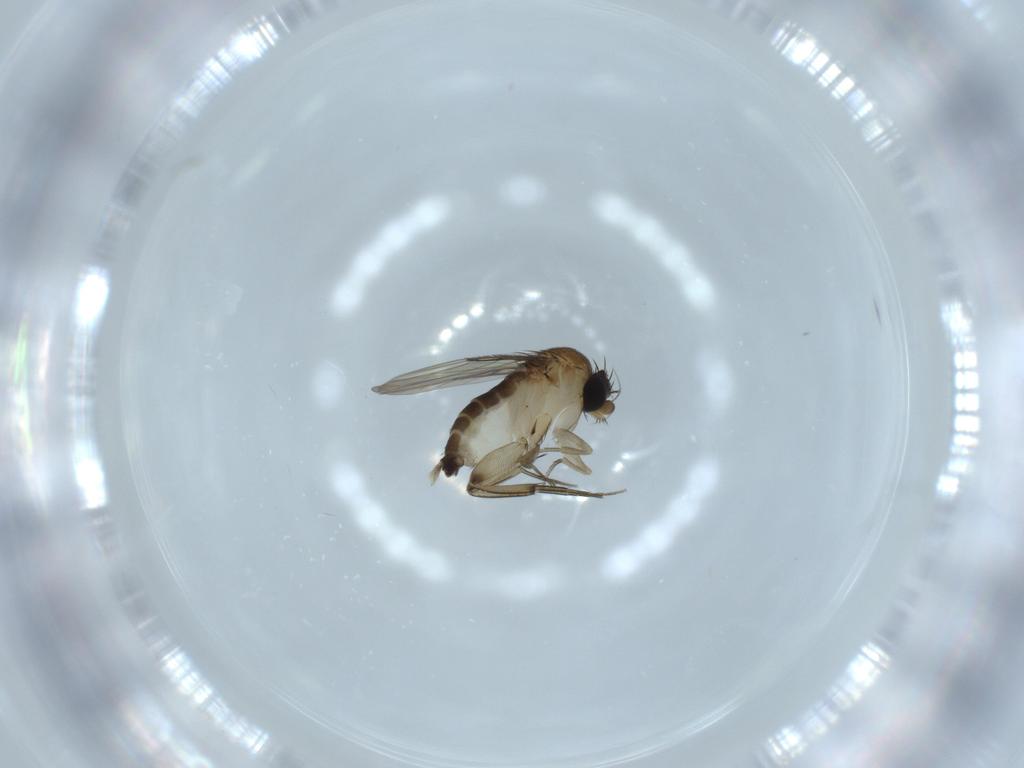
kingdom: Animalia
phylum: Arthropoda
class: Insecta
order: Diptera
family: Phoridae
